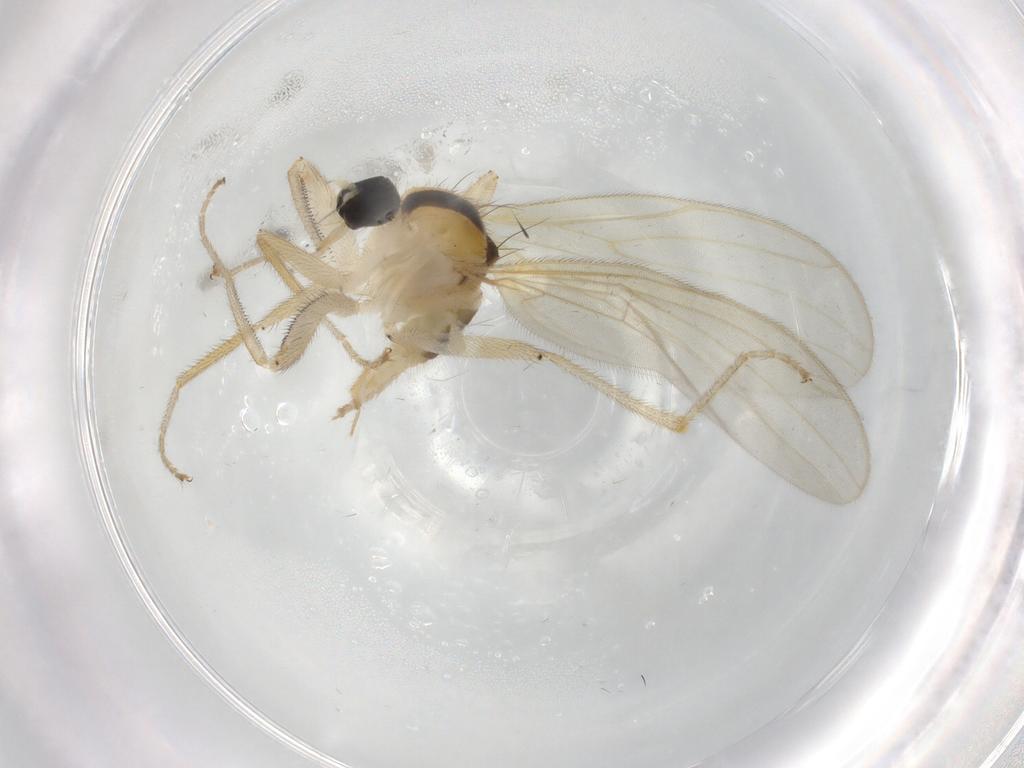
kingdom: Animalia
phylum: Arthropoda
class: Insecta
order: Diptera
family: Hybotidae
